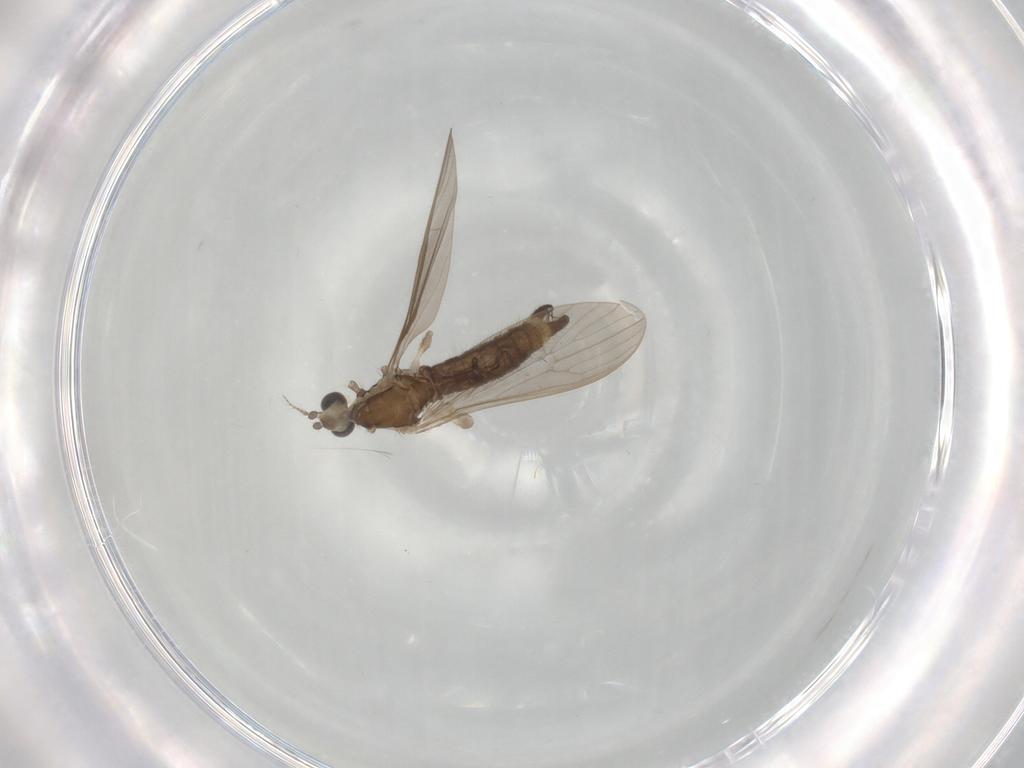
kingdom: Animalia
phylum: Arthropoda
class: Insecta
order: Diptera
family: Limoniidae
